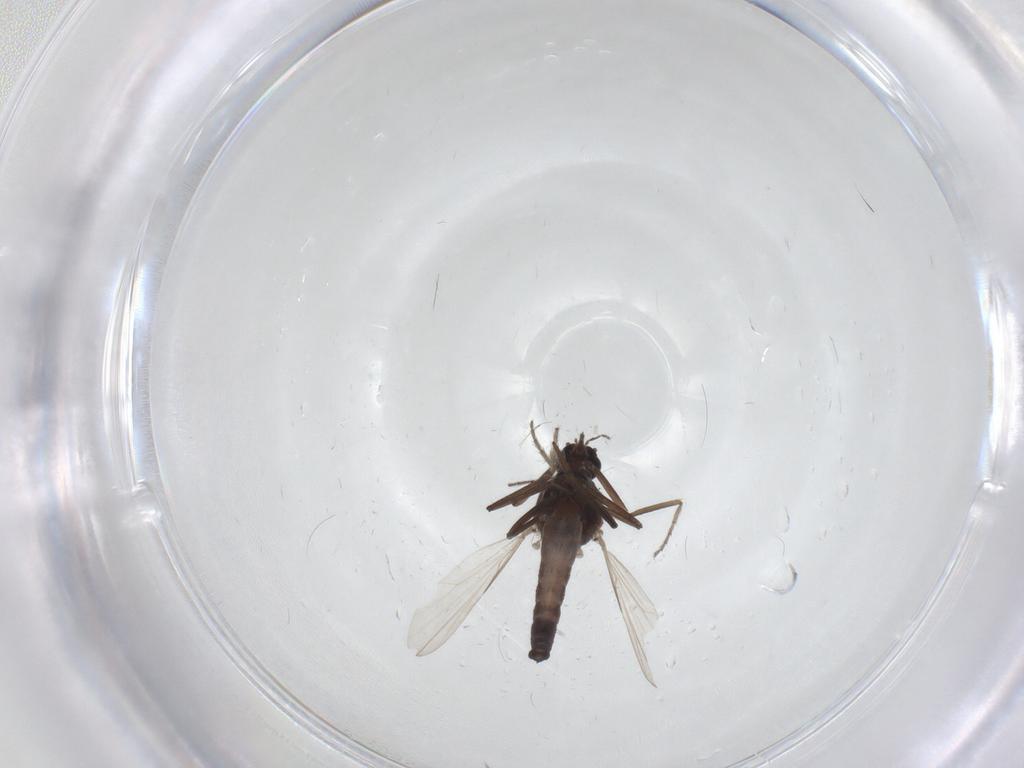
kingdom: Animalia
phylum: Arthropoda
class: Insecta
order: Diptera
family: Ceratopogonidae
